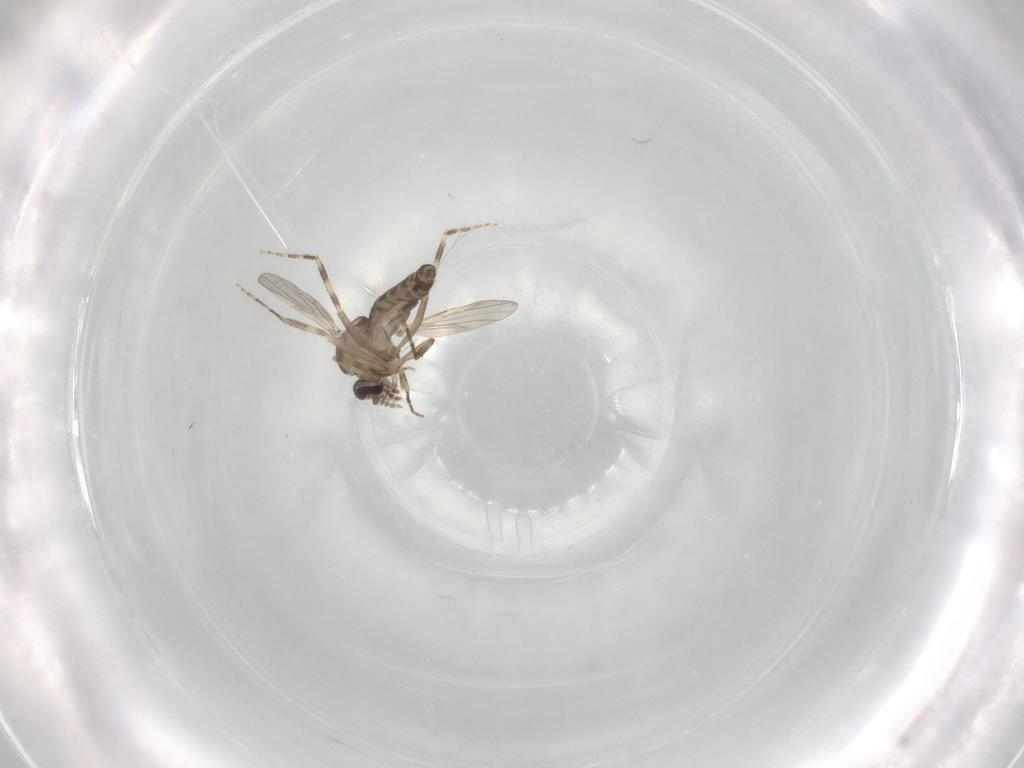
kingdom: Animalia
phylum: Arthropoda
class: Insecta
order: Diptera
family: Ceratopogonidae
